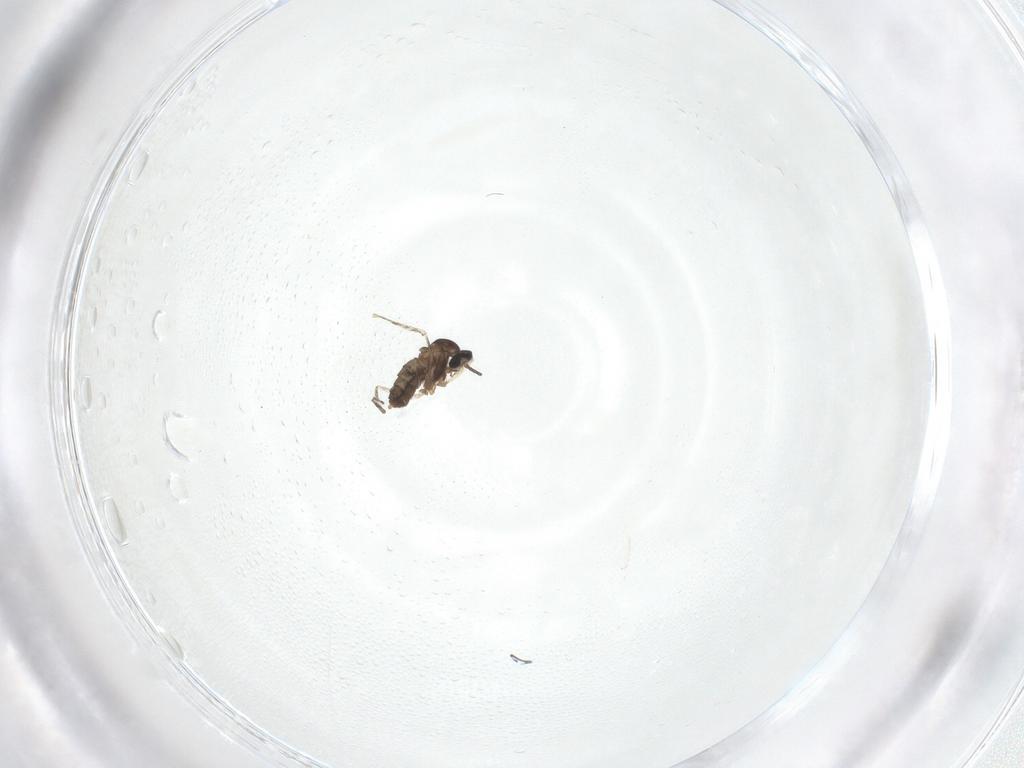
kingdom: Animalia
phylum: Arthropoda
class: Insecta
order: Diptera
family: Cecidomyiidae
